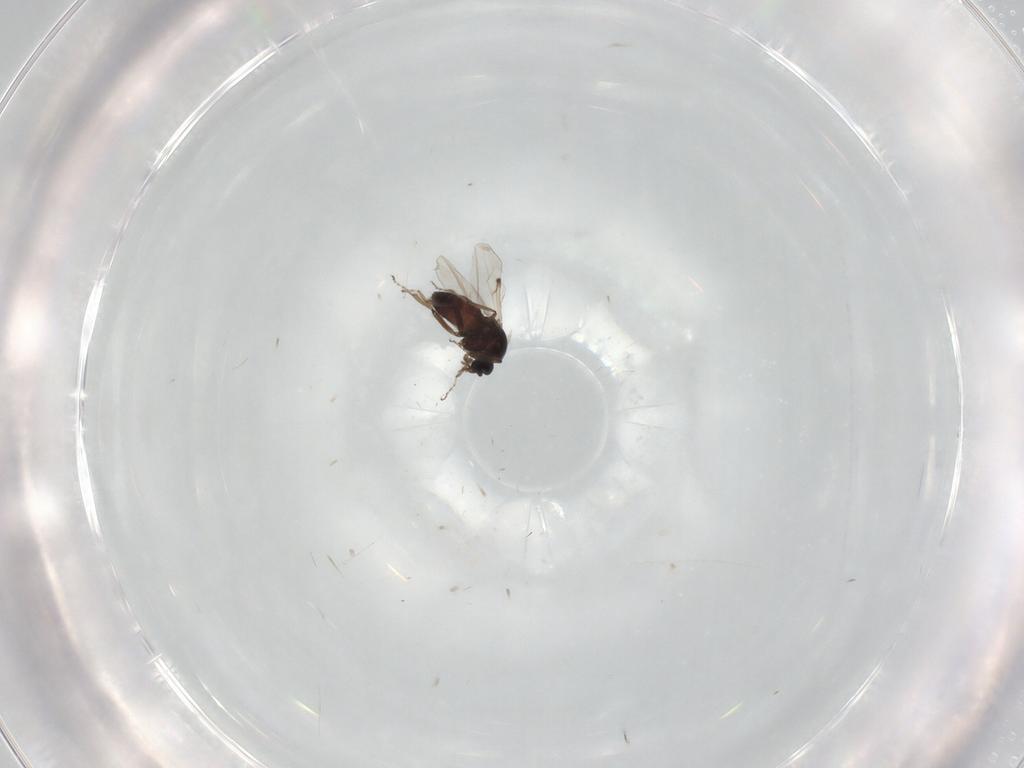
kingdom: Animalia
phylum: Arthropoda
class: Insecta
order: Diptera
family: Ceratopogonidae
